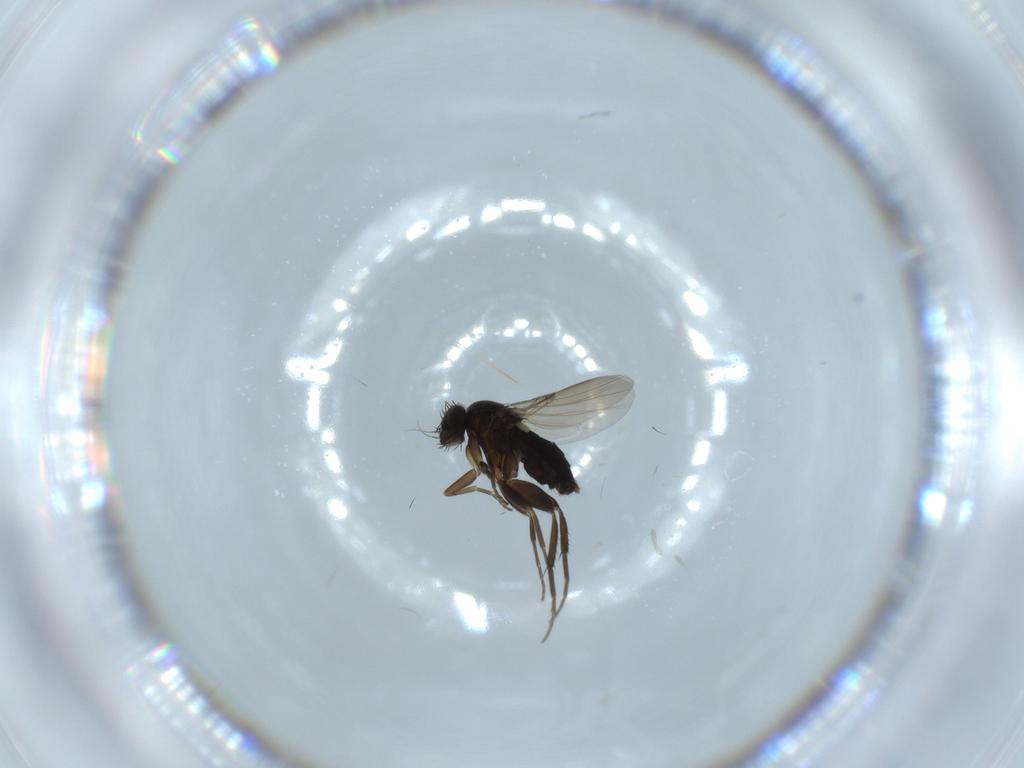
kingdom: Animalia
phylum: Arthropoda
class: Insecta
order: Diptera
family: Phoridae
